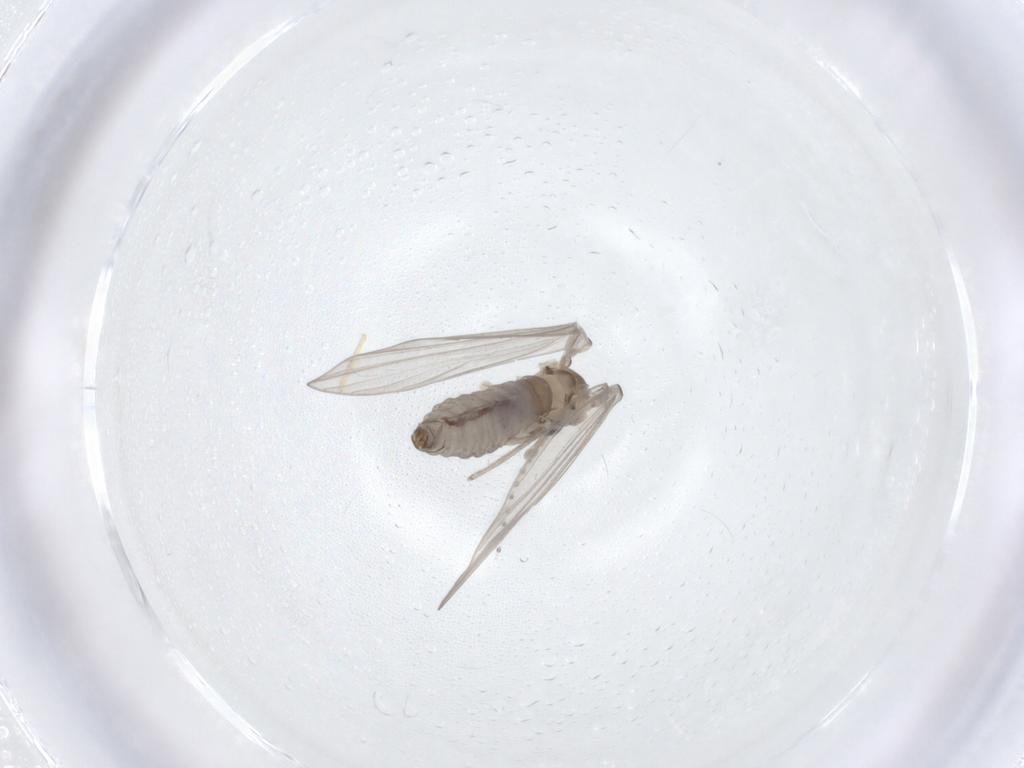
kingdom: Animalia
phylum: Arthropoda
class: Insecta
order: Diptera
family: Psychodidae
